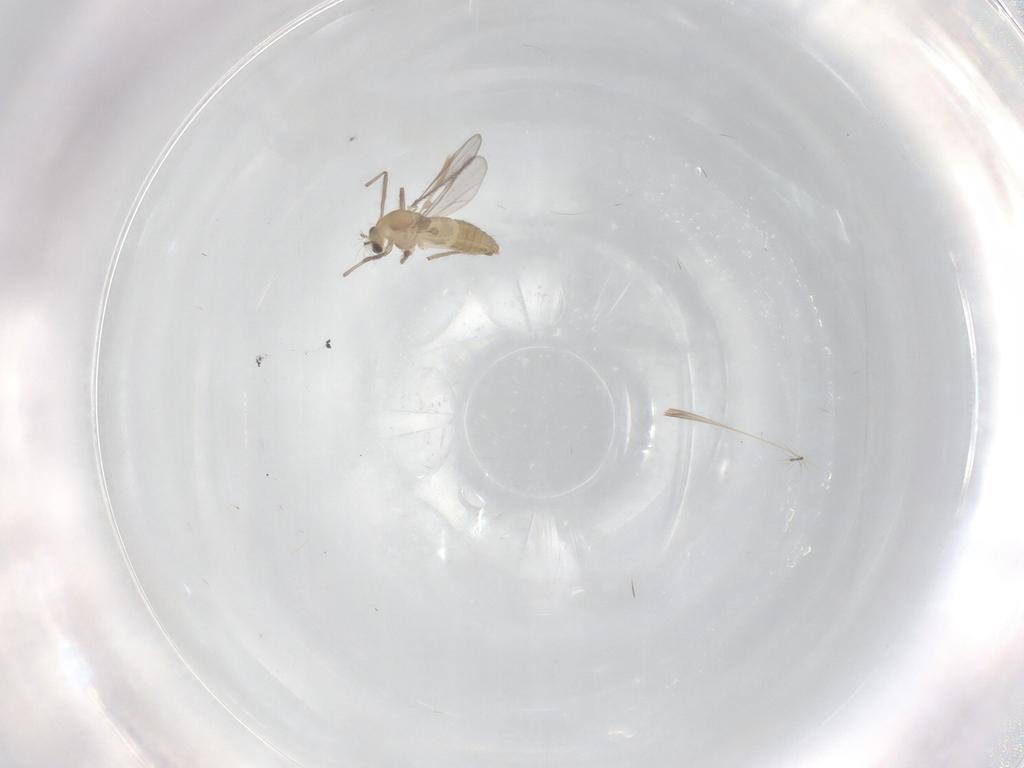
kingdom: Animalia
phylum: Arthropoda
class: Insecta
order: Diptera
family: Chironomidae
